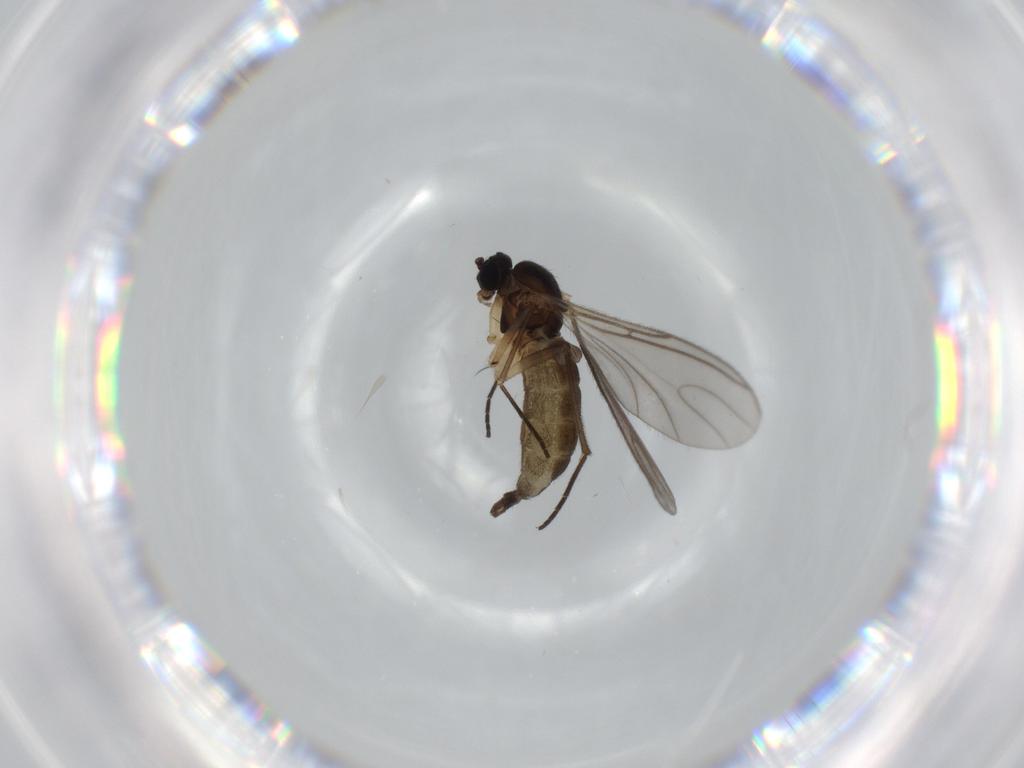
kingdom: Animalia
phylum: Arthropoda
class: Insecta
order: Diptera
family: Sciaridae
